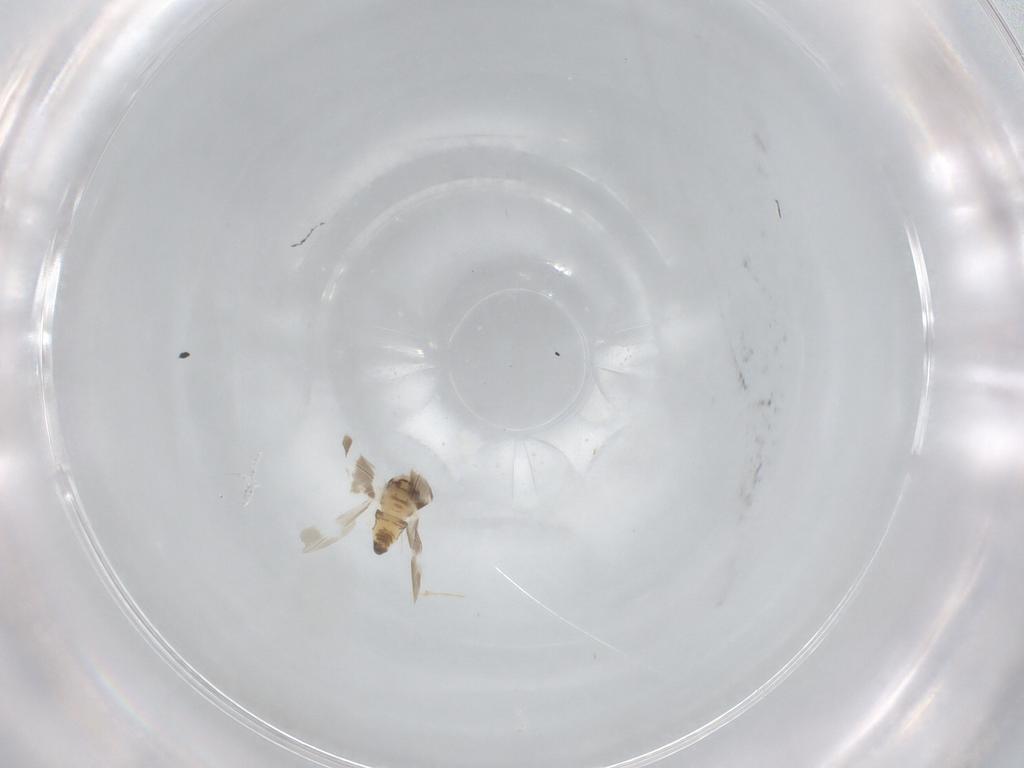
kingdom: Animalia
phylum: Arthropoda
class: Insecta
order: Hemiptera
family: Aleyrodidae
